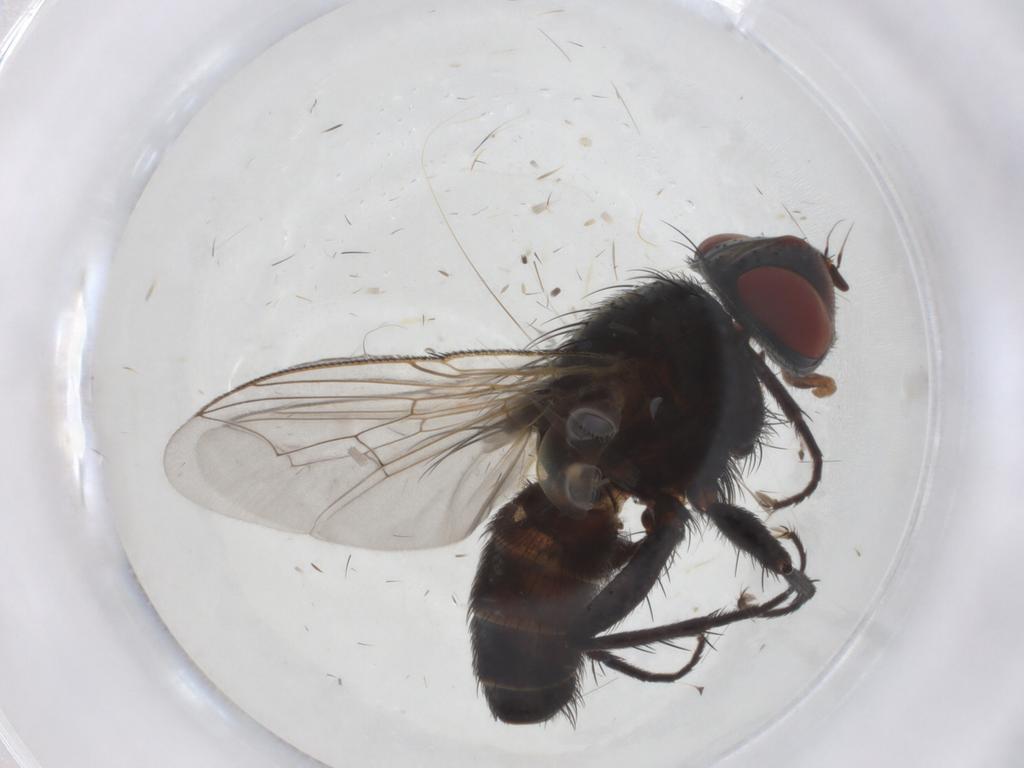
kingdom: Animalia
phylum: Arthropoda
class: Insecta
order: Diptera
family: Sarcophagidae
